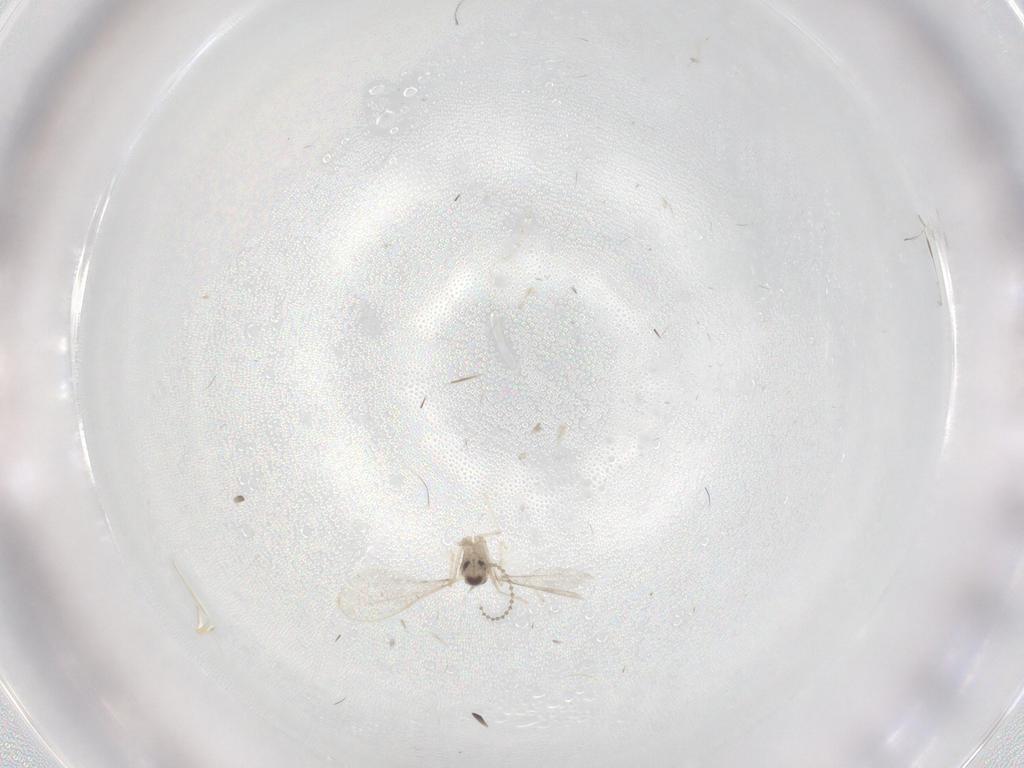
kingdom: Animalia
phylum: Arthropoda
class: Insecta
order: Diptera
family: Cecidomyiidae
